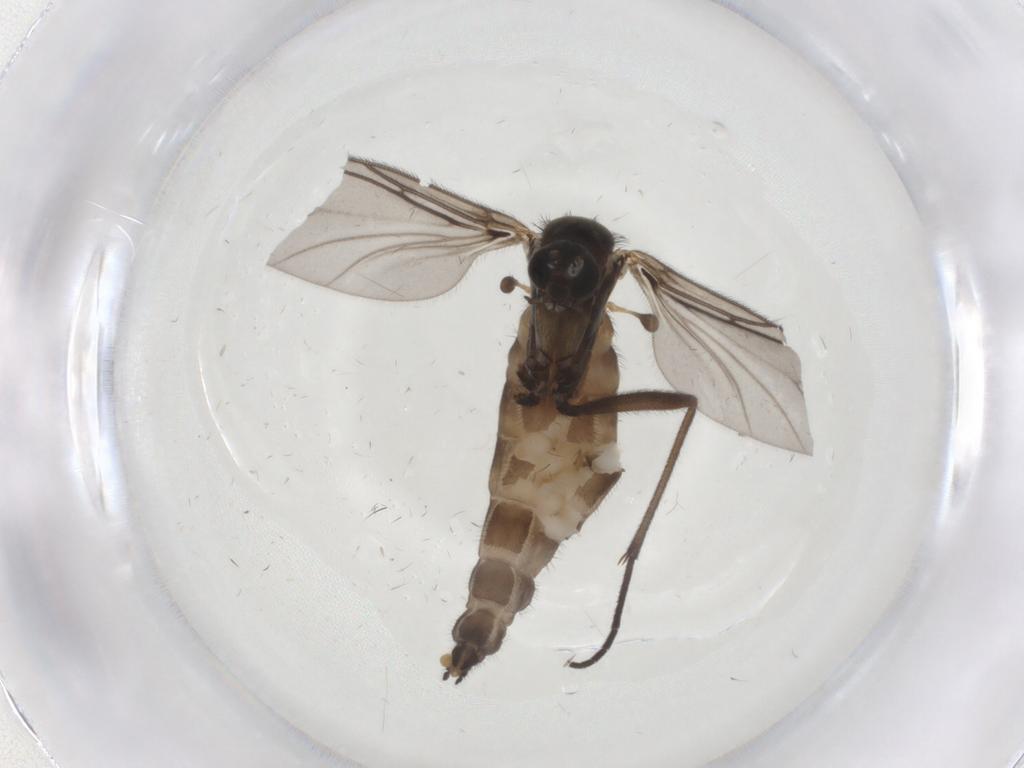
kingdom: Animalia
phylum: Arthropoda
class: Insecta
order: Diptera
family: Sciaridae
